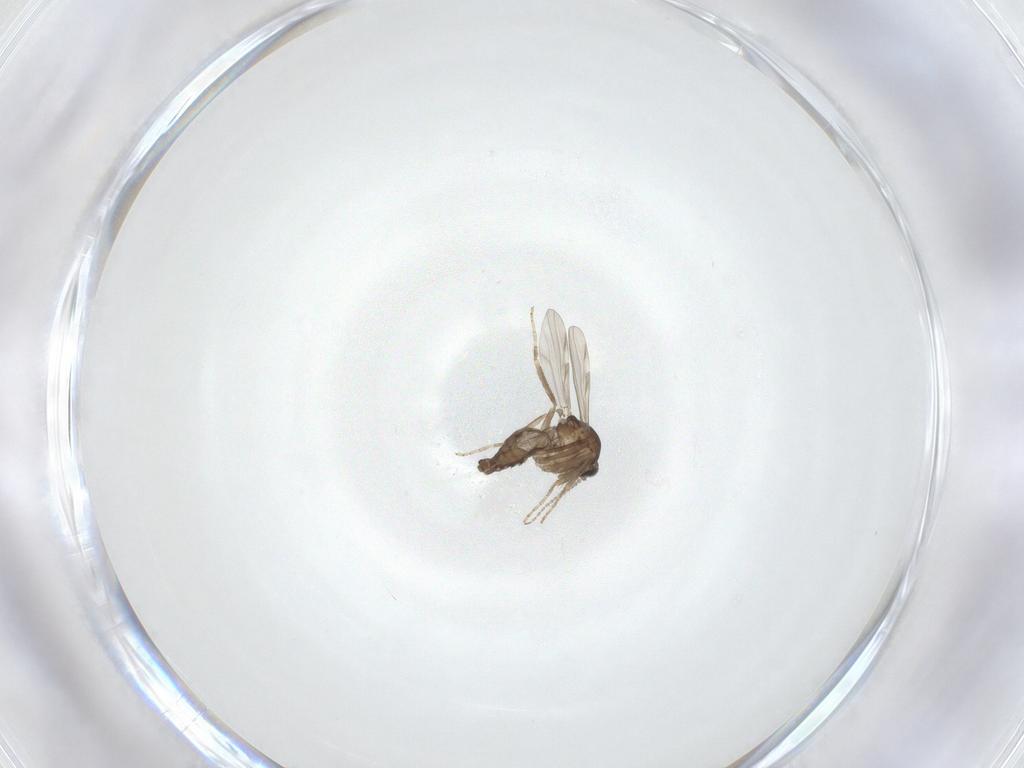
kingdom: Animalia
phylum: Arthropoda
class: Insecta
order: Diptera
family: Ceratopogonidae
